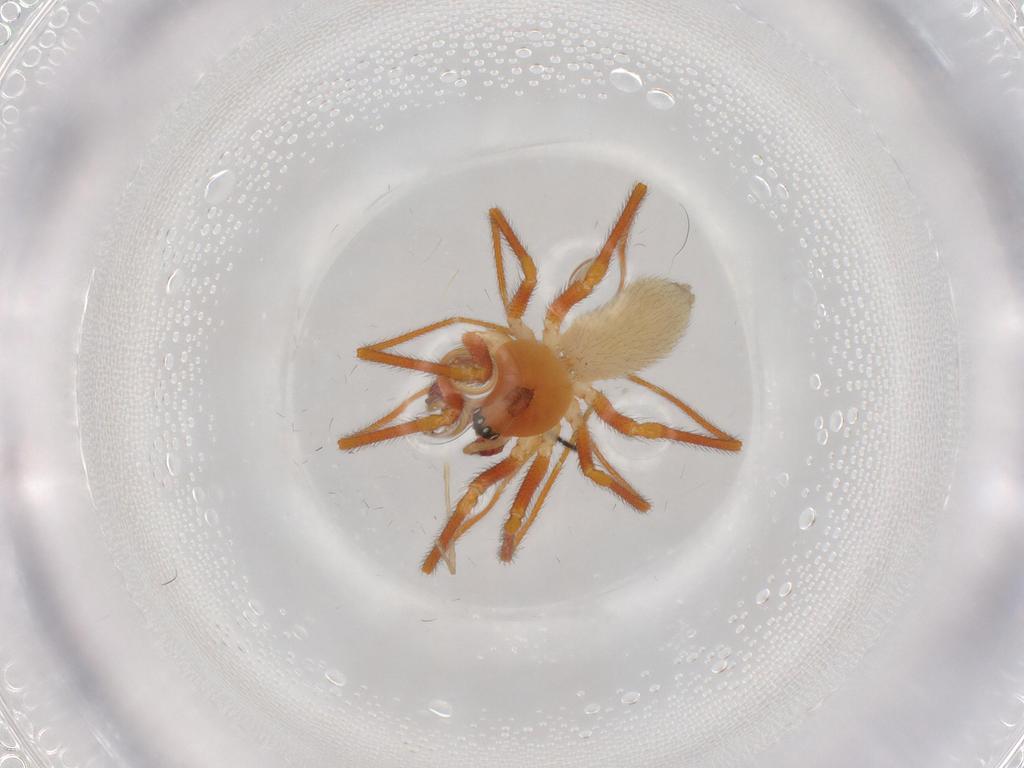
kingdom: Animalia
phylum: Arthropoda
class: Arachnida
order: Araneae
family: Linyphiidae
